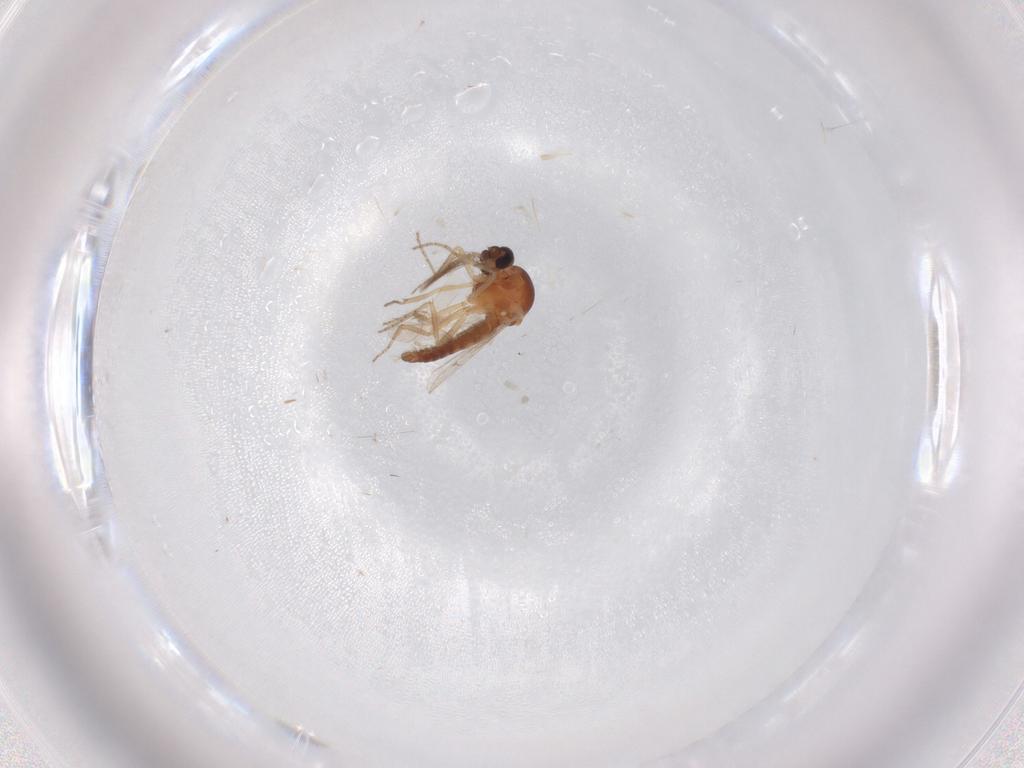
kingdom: Animalia
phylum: Arthropoda
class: Insecta
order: Diptera
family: Ceratopogonidae
